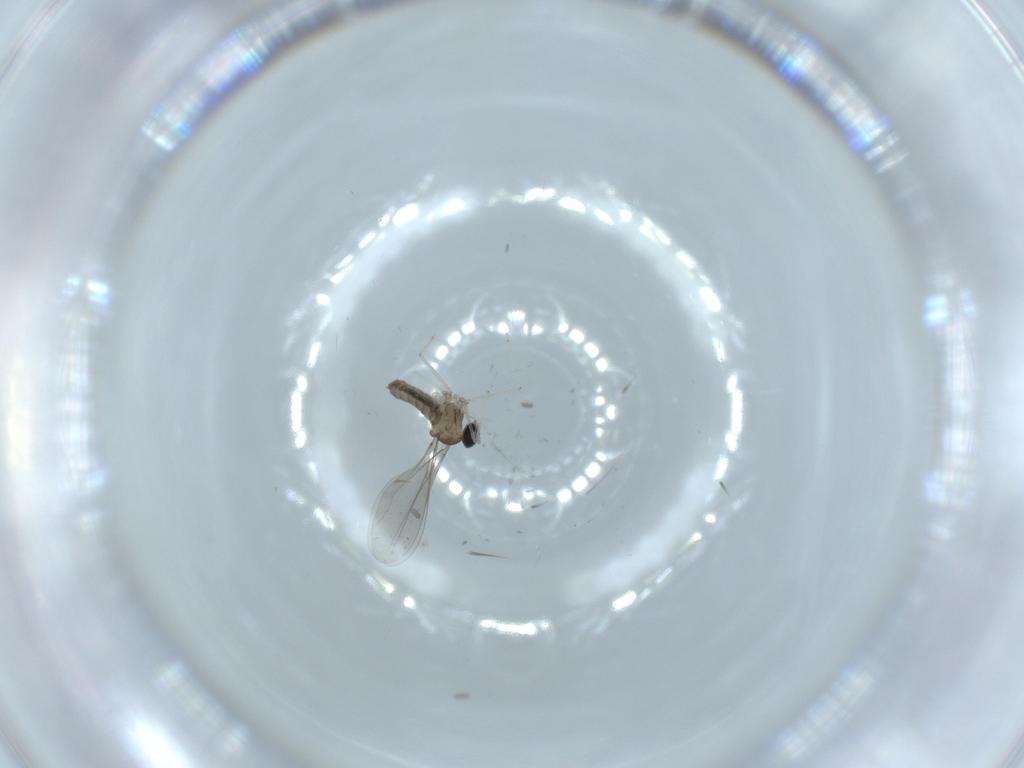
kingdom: Animalia
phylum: Arthropoda
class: Insecta
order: Diptera
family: Cecidomyiidae
